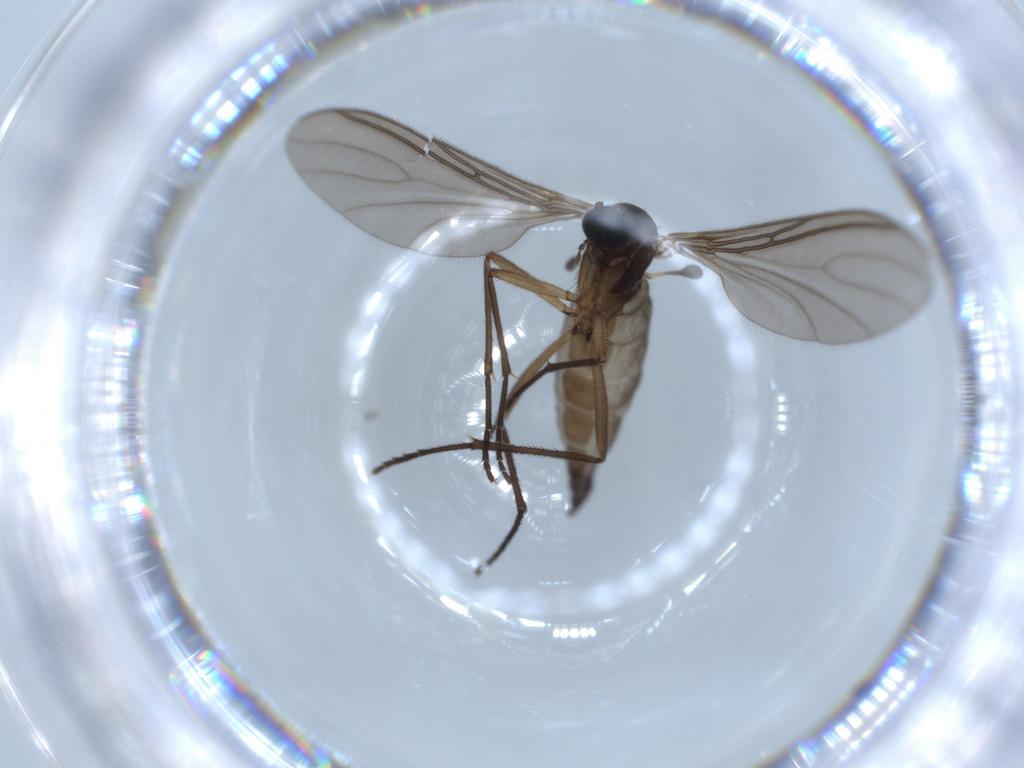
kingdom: Animalia
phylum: Arthropoda
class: Insecta
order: Diptera
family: Sciaridae
